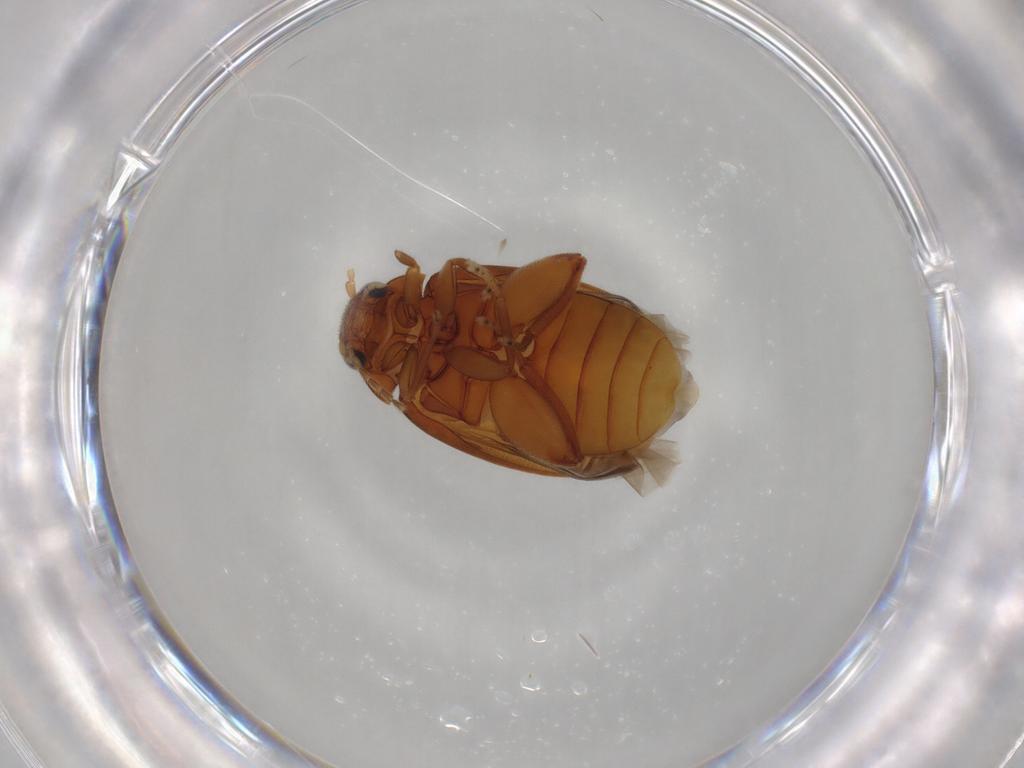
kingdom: Animalia
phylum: Arthropoda
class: Insecta
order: Coleoptera
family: Scirtidae
